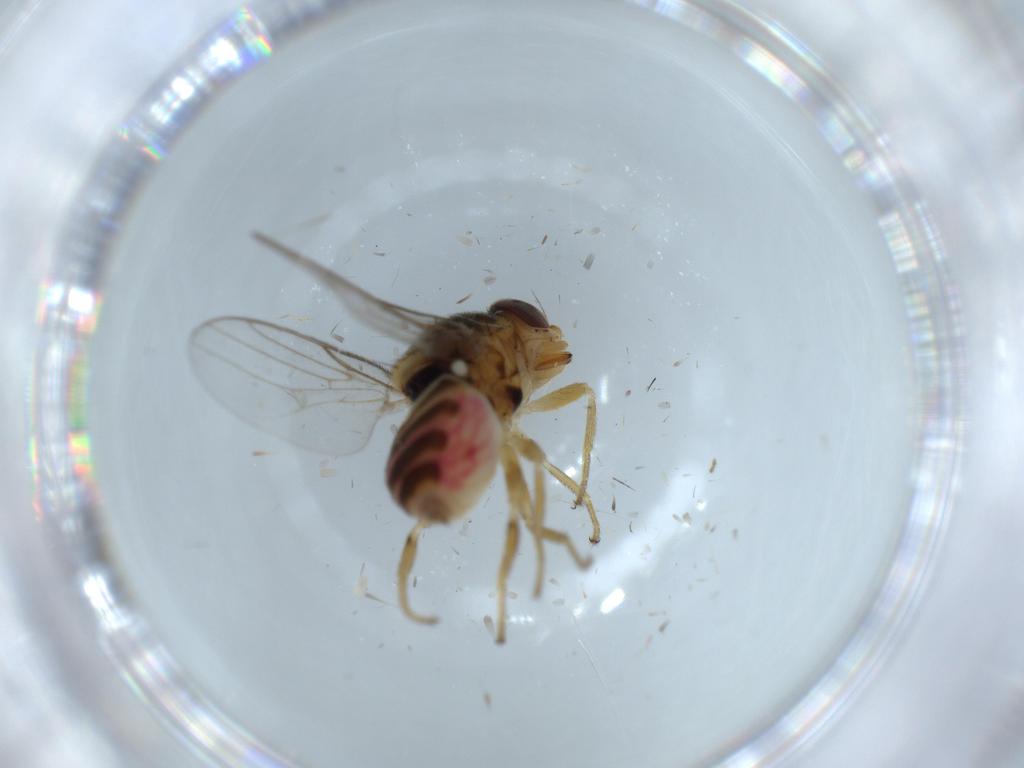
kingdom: Animalia
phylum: Arthropoda
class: Insecta
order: Diptera
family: Chloropidae
